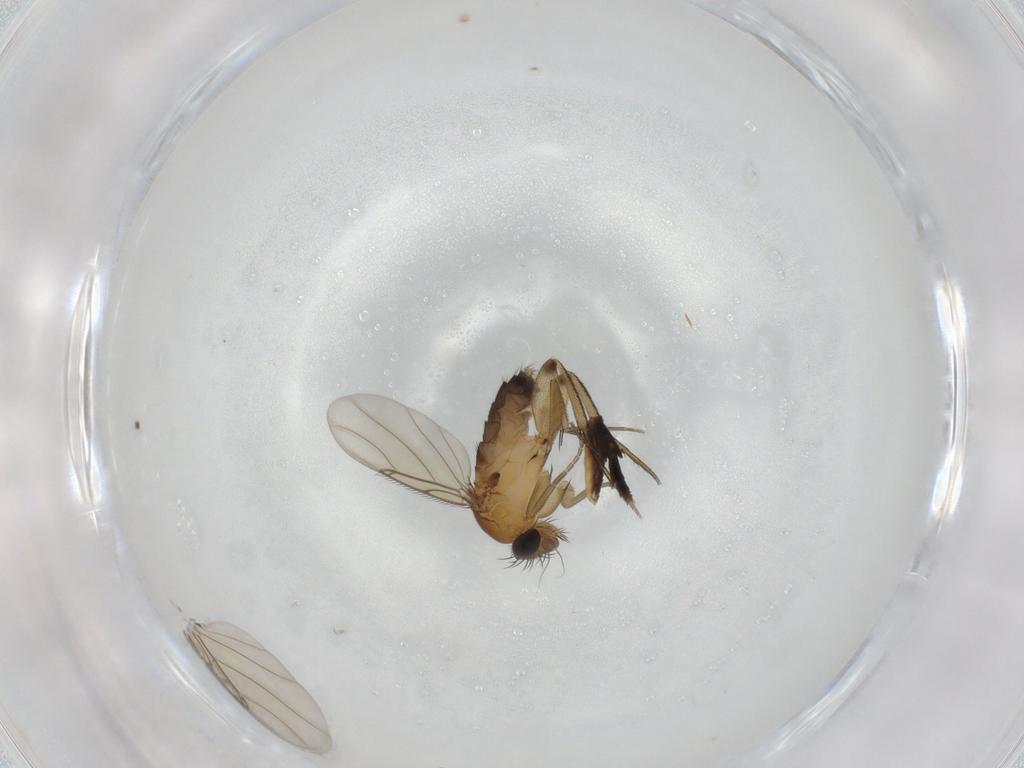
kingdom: Animalia
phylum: Arthropoda
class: Insecta
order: Diptera
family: Phoridae
